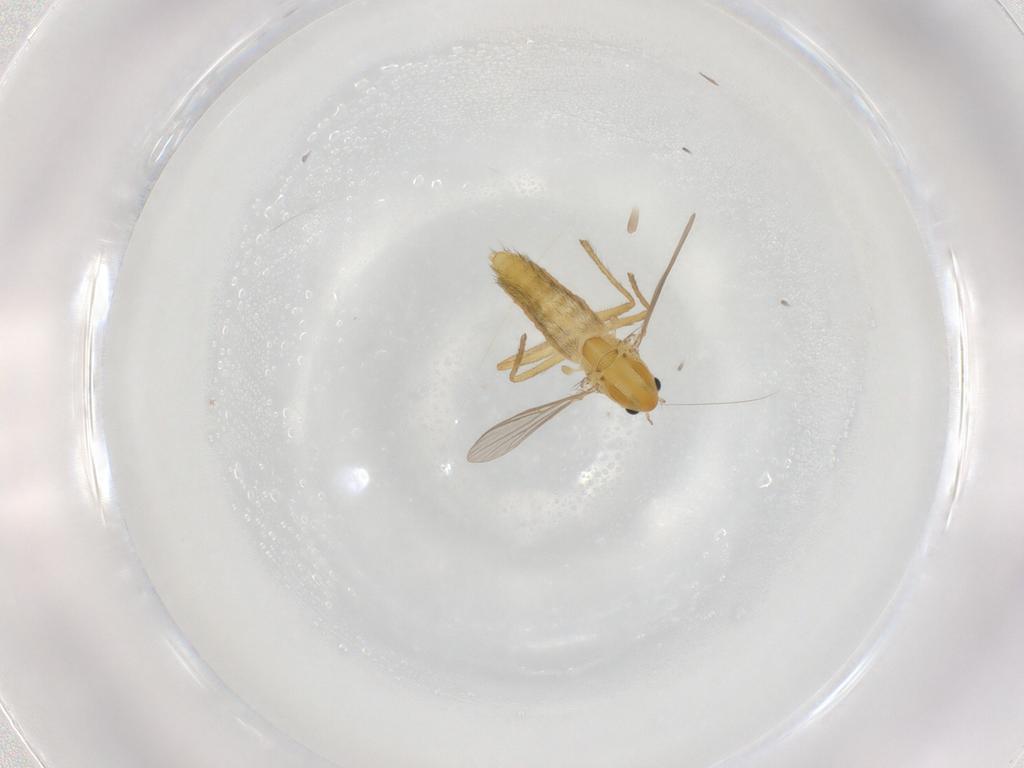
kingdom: Animalia
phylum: Arthropoda
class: Insecta
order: Diptera
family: Chironomidae
